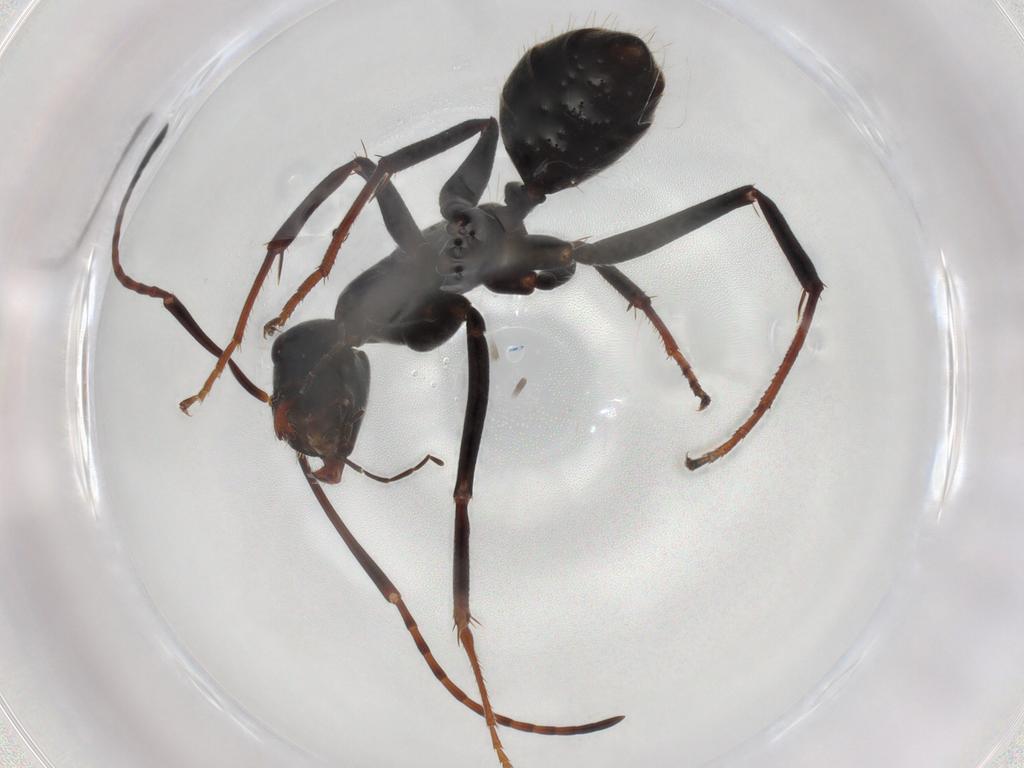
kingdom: Animalia
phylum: Arthropoda
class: Insecta
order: Hymenoptera
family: Formicidae
